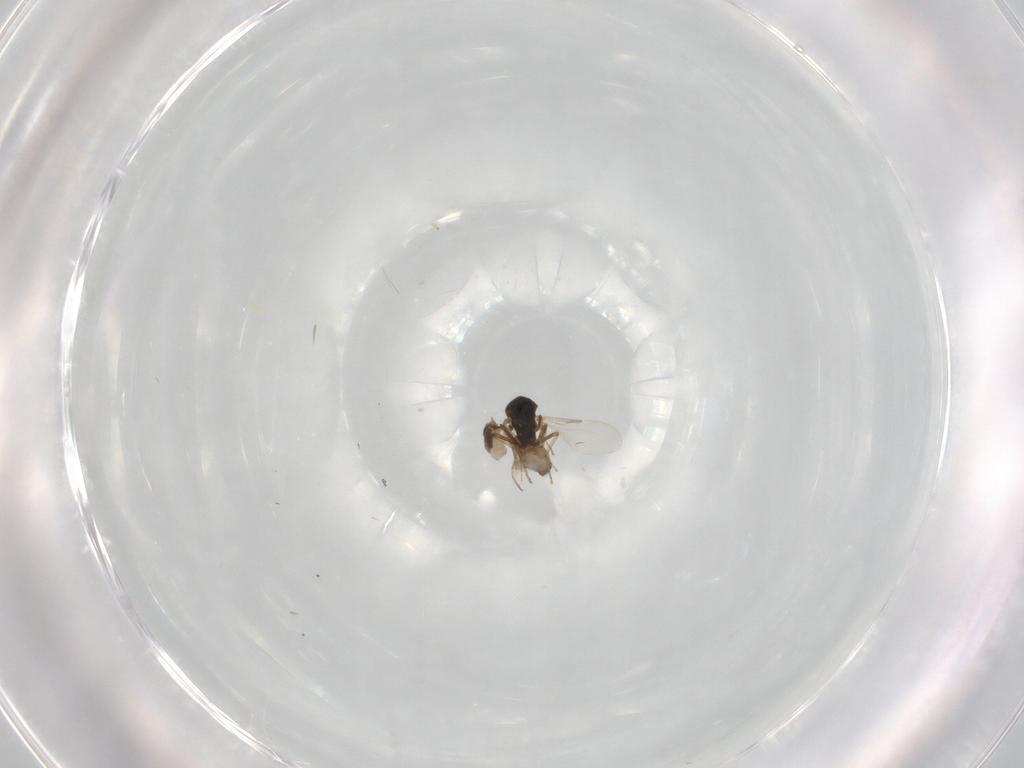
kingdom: Animalia
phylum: Arthropoda
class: Insecta
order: Diptera
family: Ceratopogonidae
